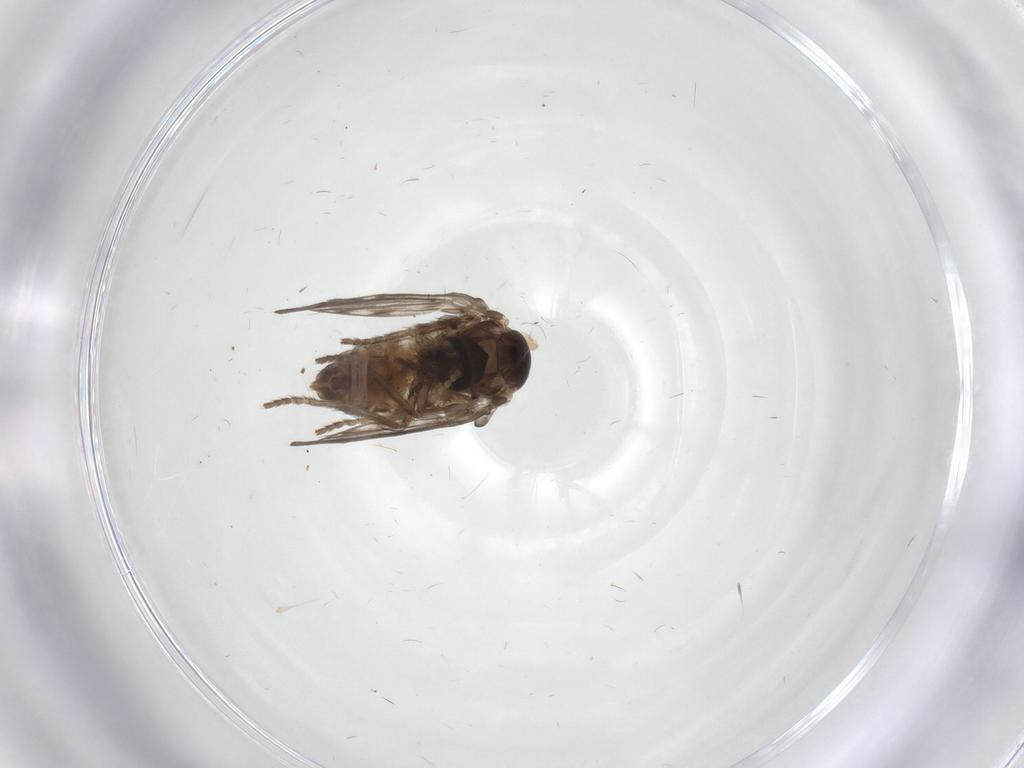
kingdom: Animalia
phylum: Arthropoda
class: Insecta
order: Diptera
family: Psychodidae
